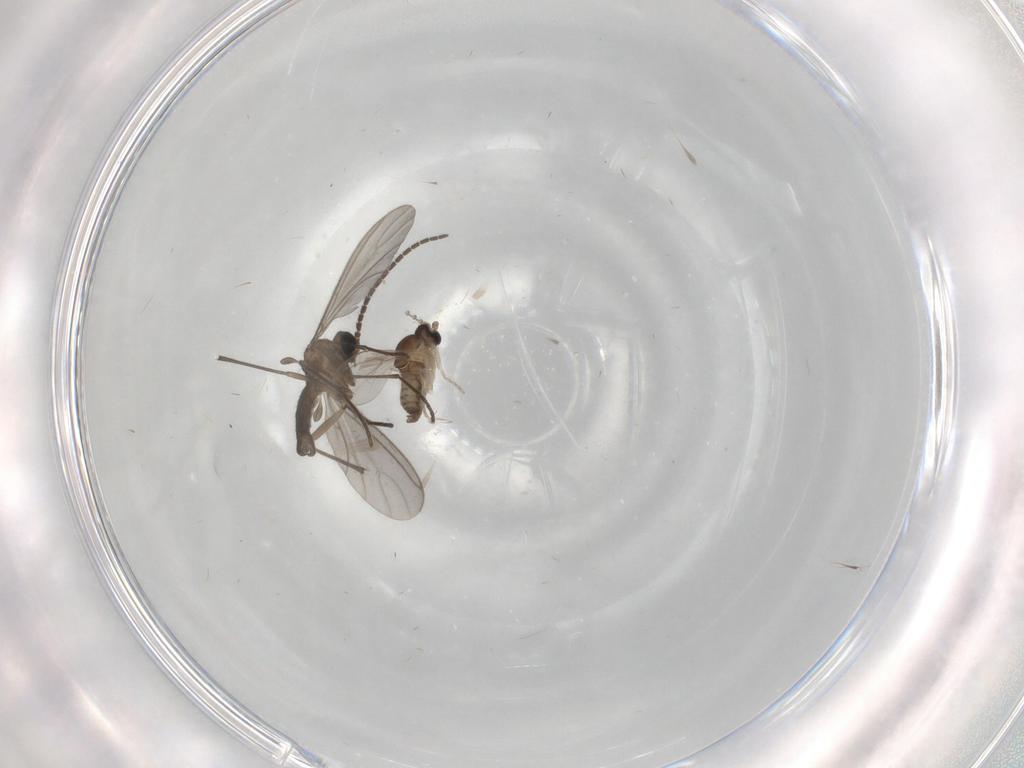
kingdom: Animalia
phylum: Arthropoda
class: Insecta
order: Diptera
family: Sciaridae
